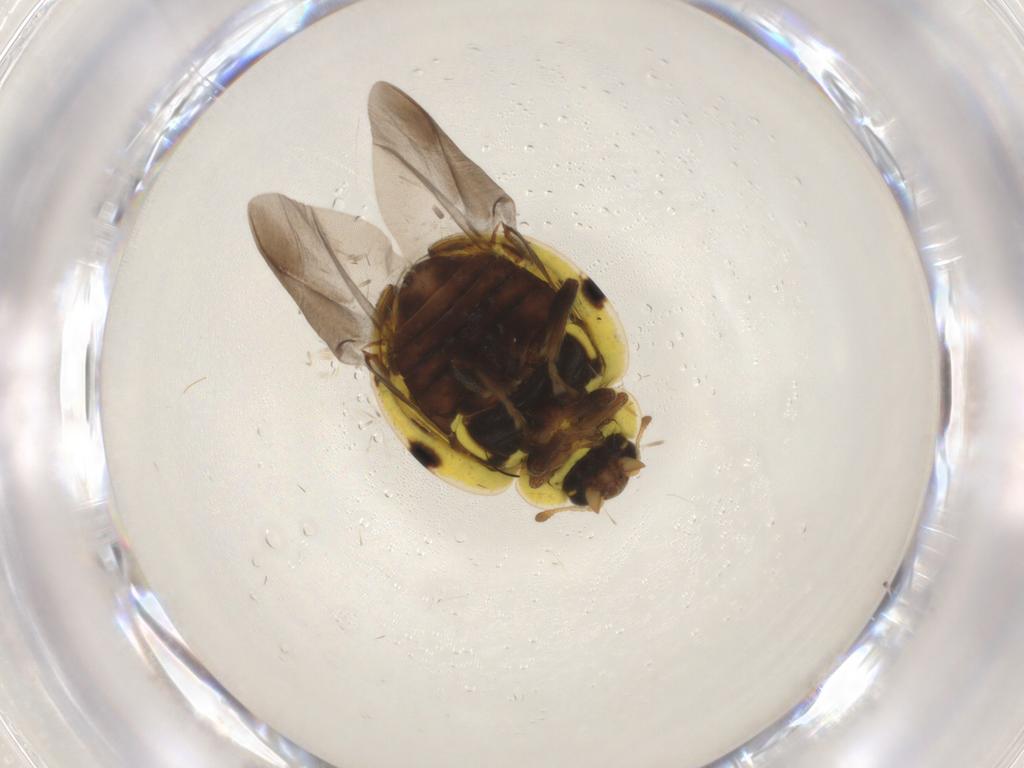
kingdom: Animalia
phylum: Arthropoda
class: Insecta
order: Coleoptera
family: Coccinellidae
